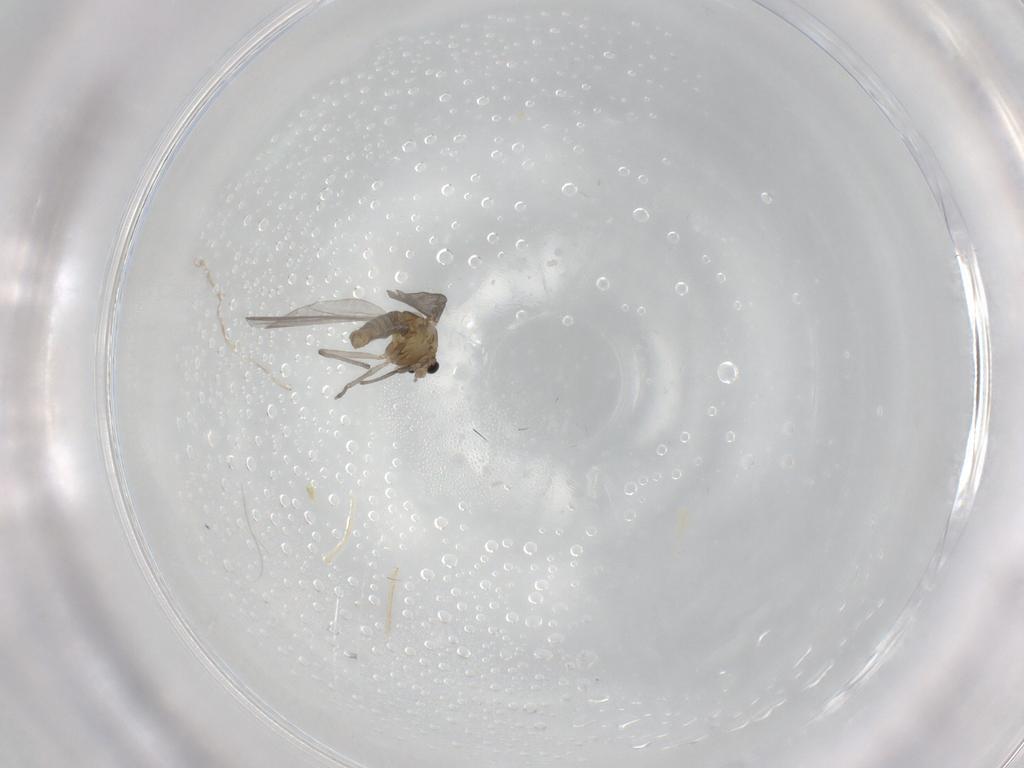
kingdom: Animalia
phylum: Arthropoda
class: Insecta
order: Diptera
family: Chironomidae
